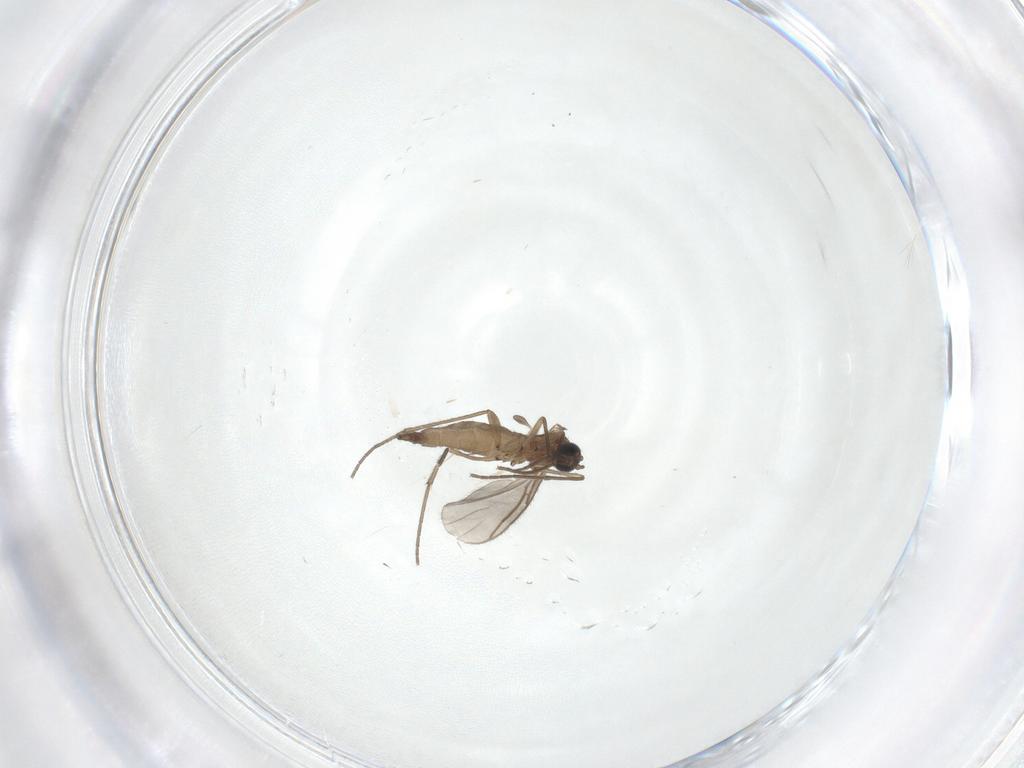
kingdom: Animalia
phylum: Arthropoda
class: Insecta
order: Diptera
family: Sciaridae
